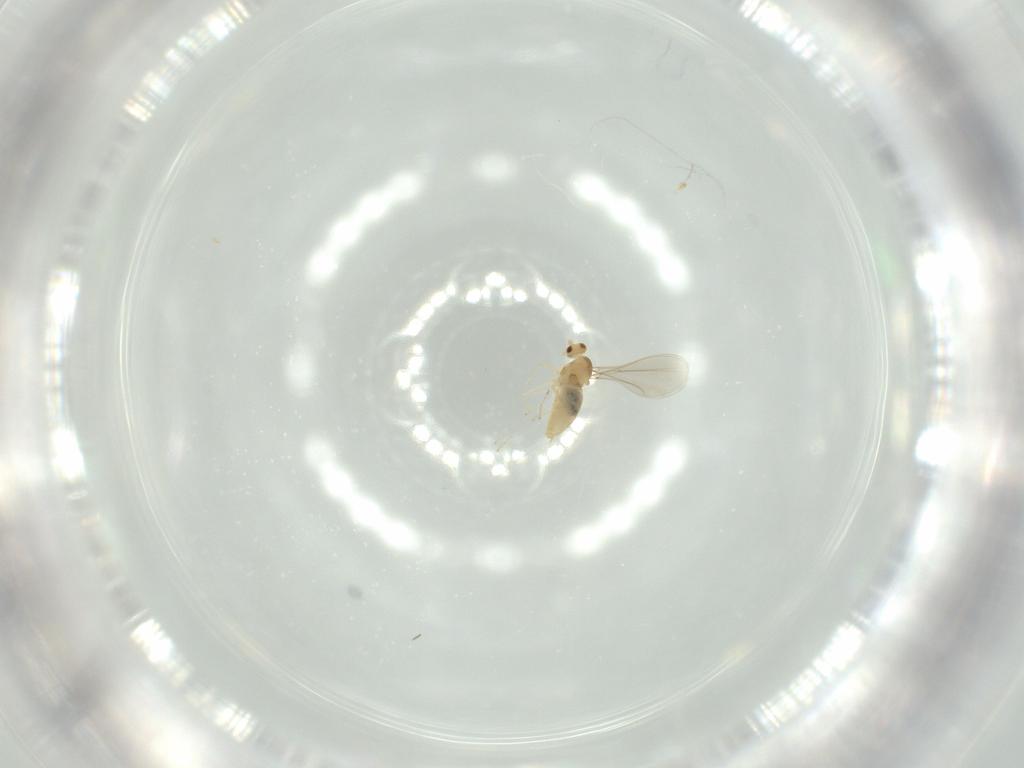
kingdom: Animalia
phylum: Arthropoda
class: Insecta
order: Diptera
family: Cecidomyiidae
